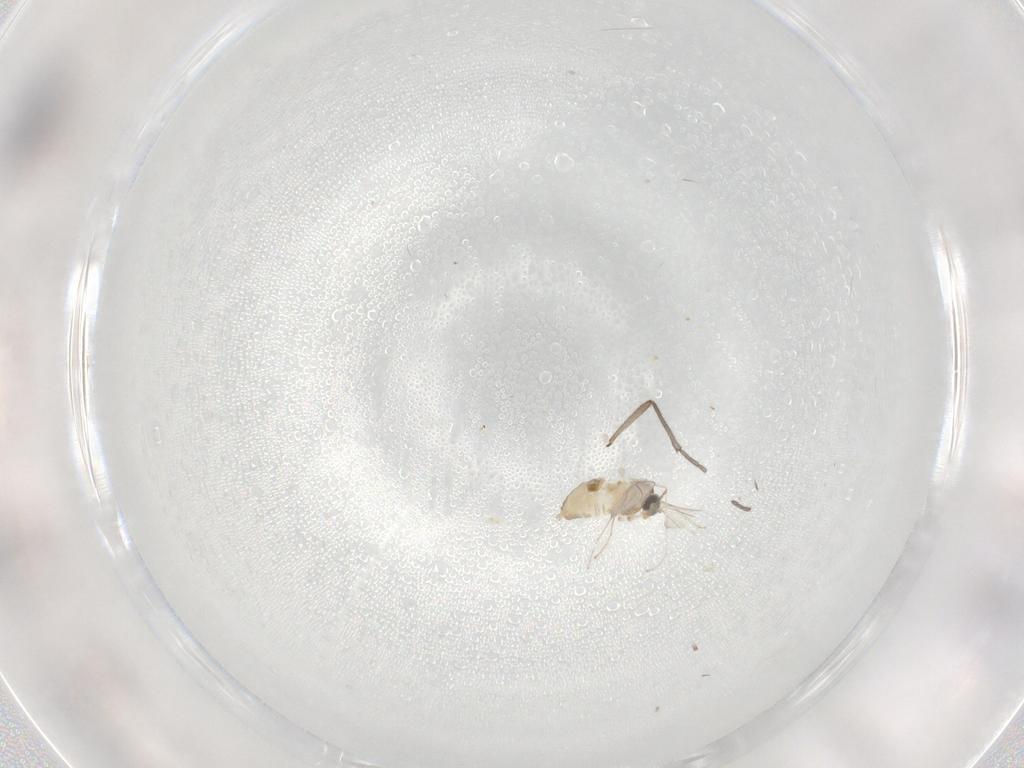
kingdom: Animalia
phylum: Arthropoda
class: Insecta
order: Diptera
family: Cecidomyiidae
